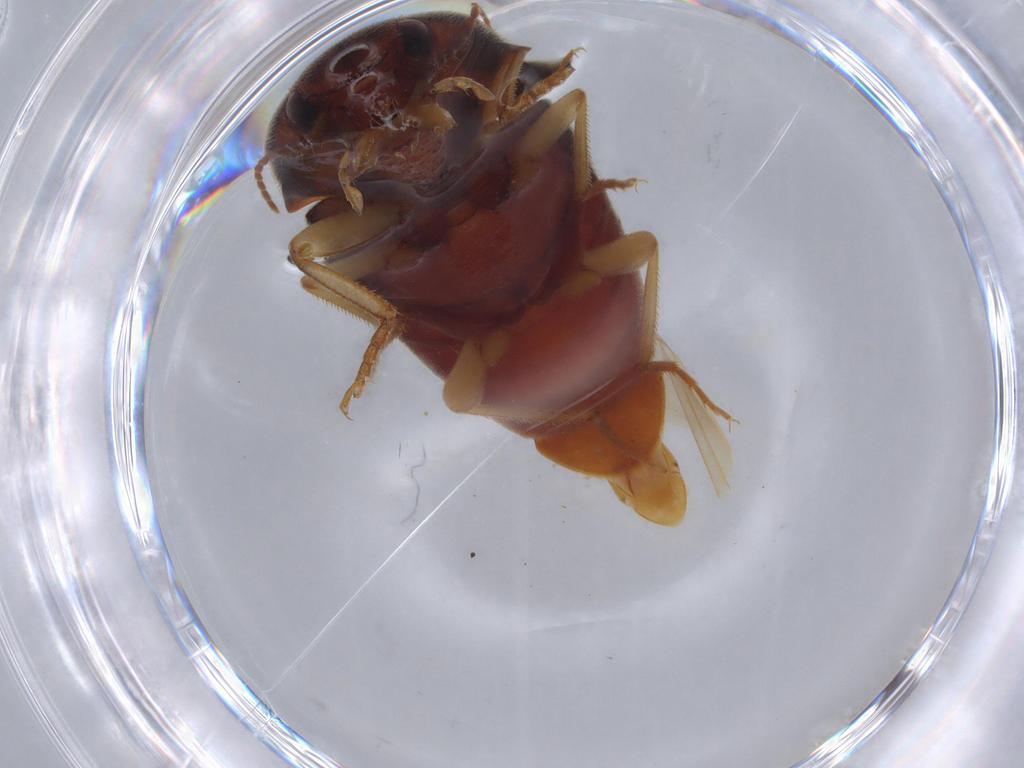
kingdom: Animalia
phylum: Arthropoda
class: Insecta
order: Coleoptera
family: Elateridae
